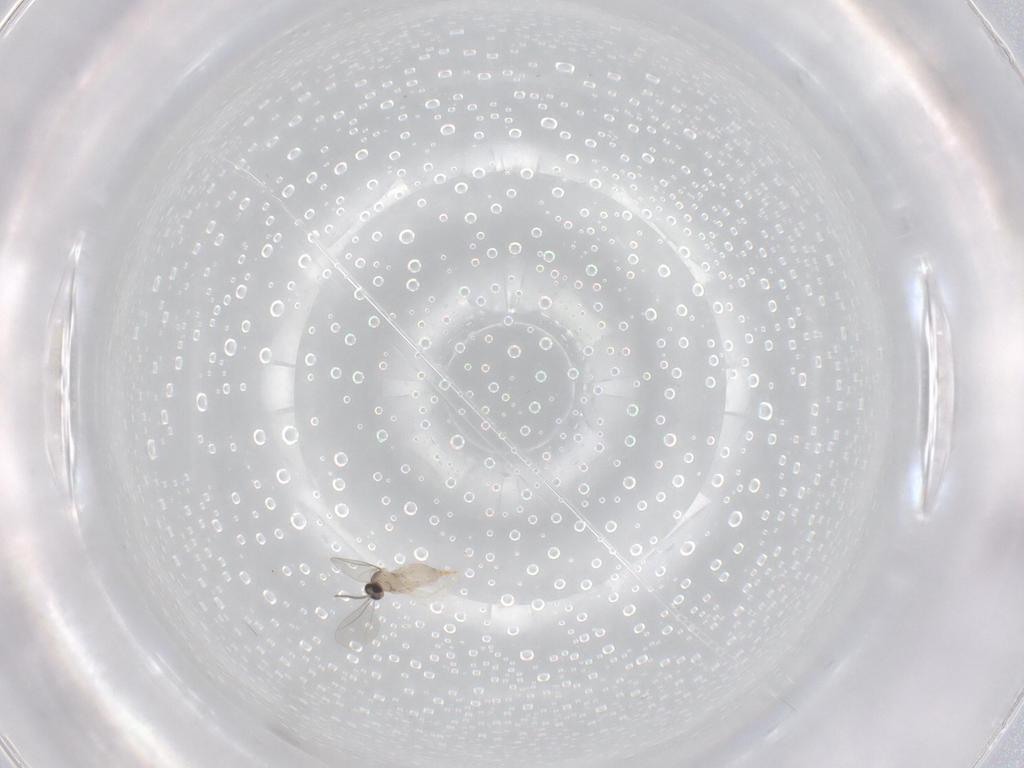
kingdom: Animalia
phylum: Arthropoda
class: Insecta
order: Diptera
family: Cecidomyiidae
